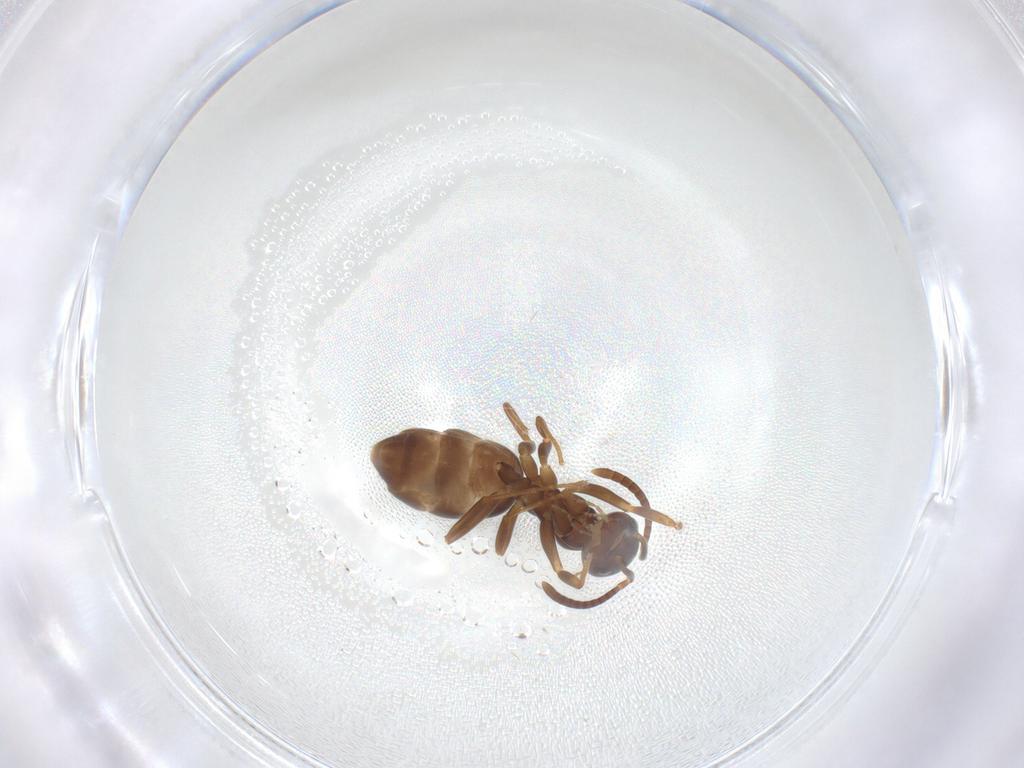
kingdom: Animalia
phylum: Arthropoda
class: Insecta
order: Hymenoptera
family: Formicidae
